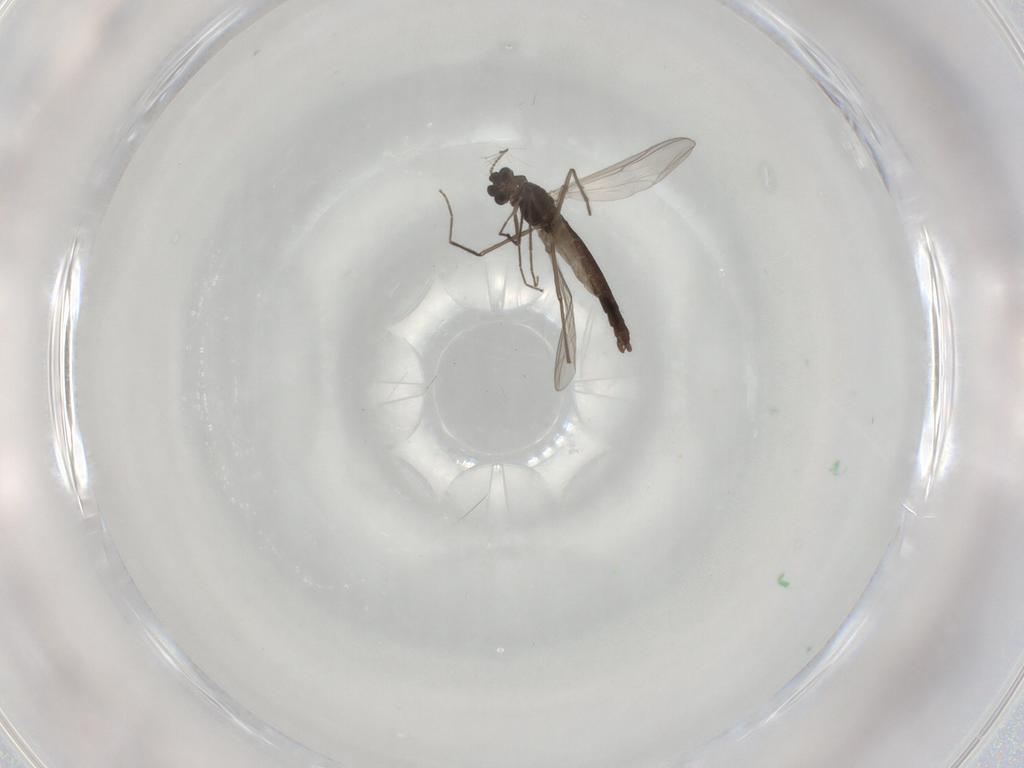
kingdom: Animalia
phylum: Arthropoda
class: Insecta
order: Diptera
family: Chironomidae
